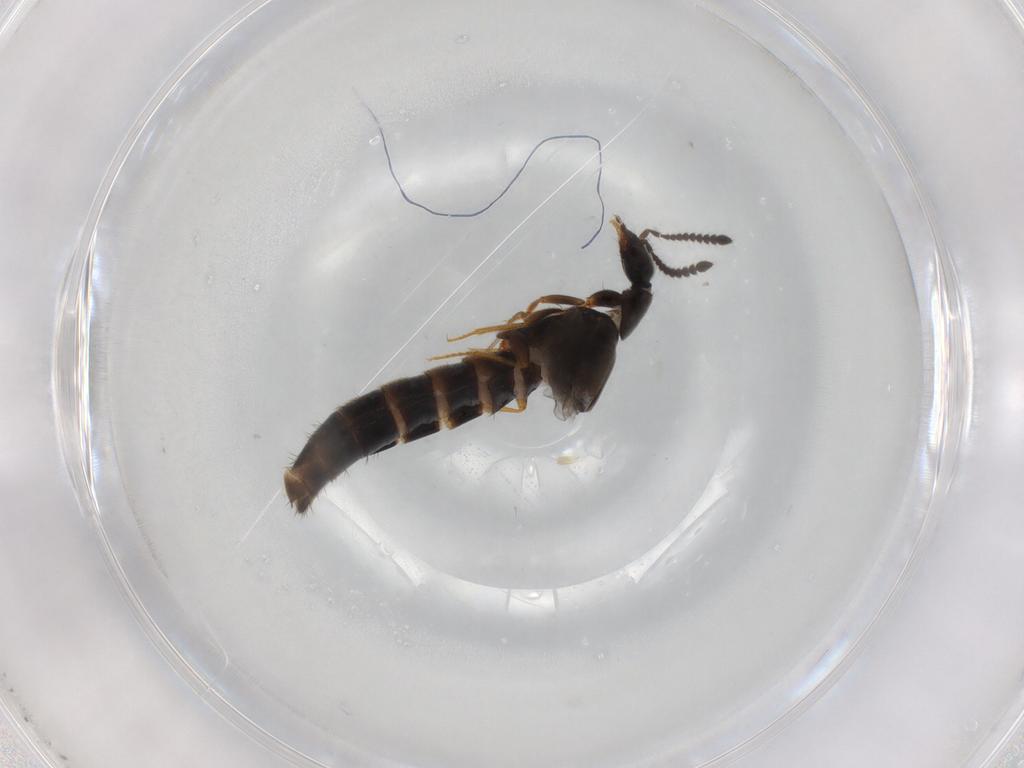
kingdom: Animalia
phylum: Arthropoda
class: Insecta
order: Coleoptera
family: Staphylinidae
